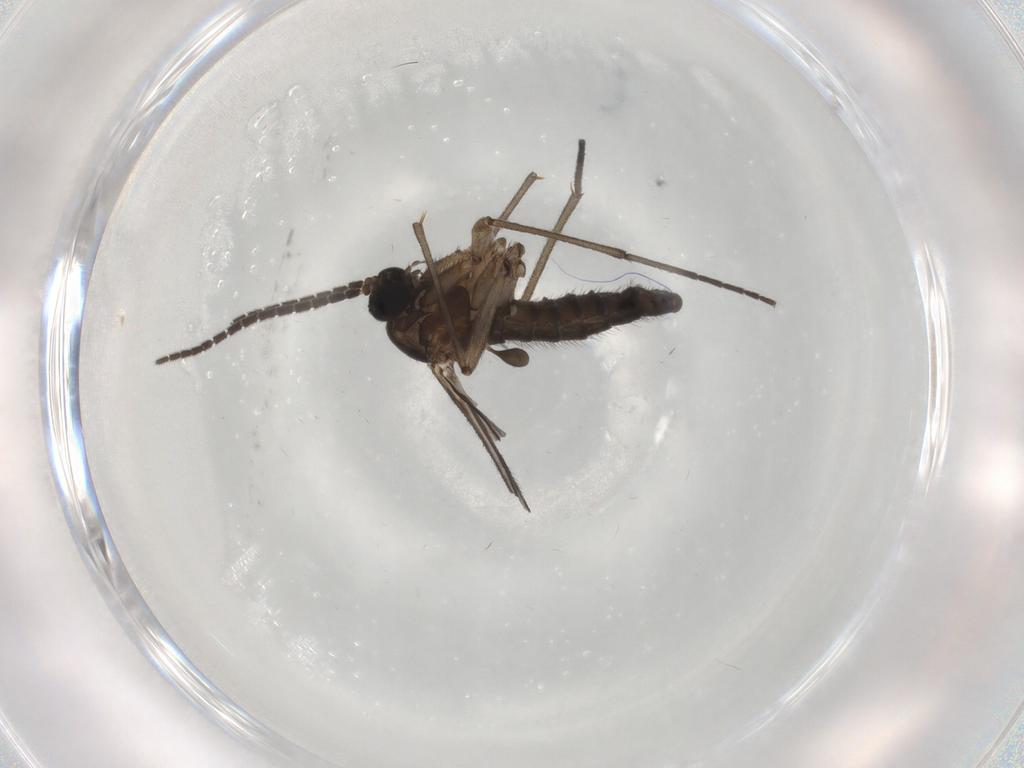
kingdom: Animalia
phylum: Arthropoda
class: Insecta
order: Diptera
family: Sciaridae
